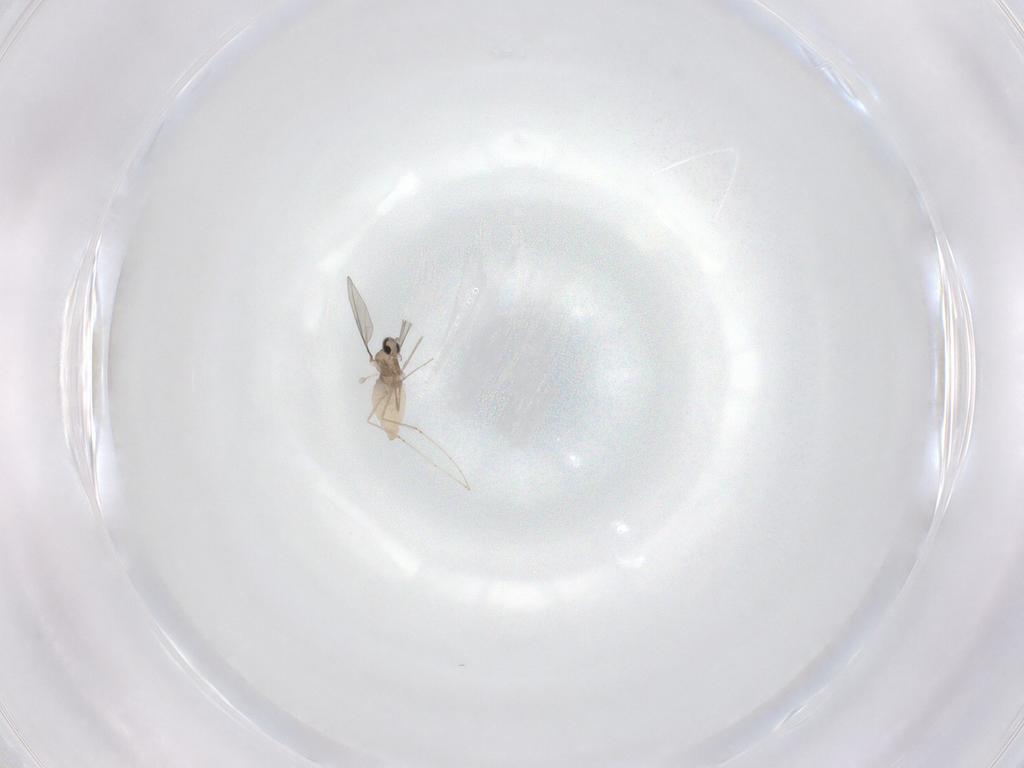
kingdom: Animalia
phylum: Arthropoda
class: Insecta
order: Diptera
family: Cecidomyiidae
